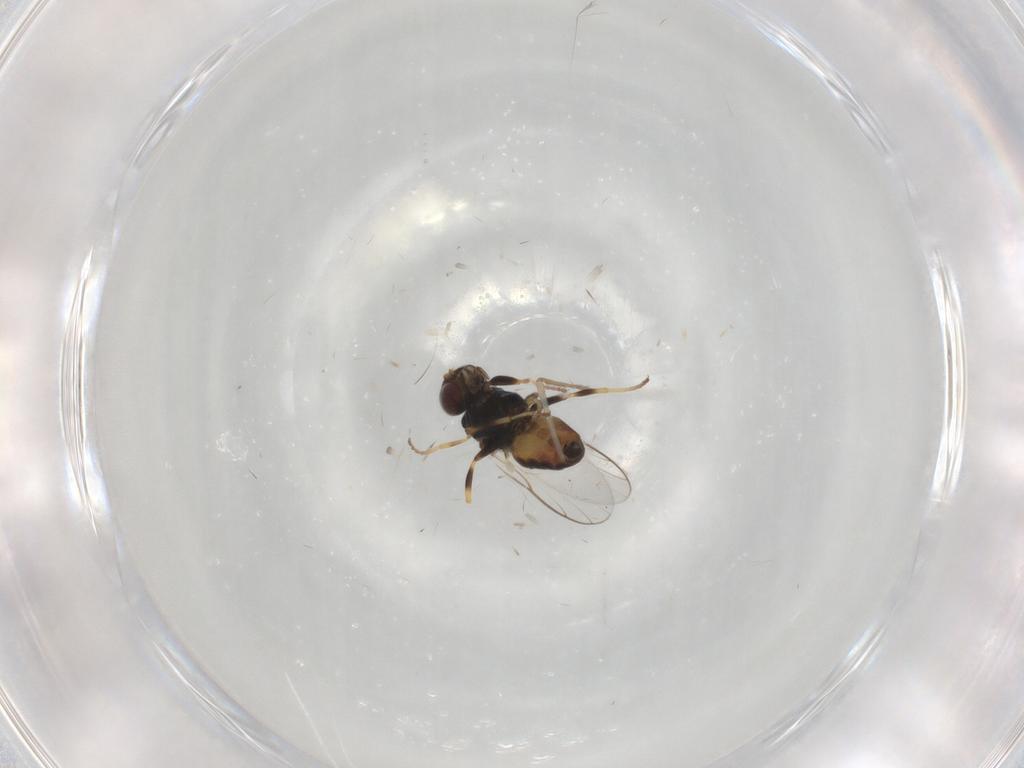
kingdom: Animalia
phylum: Arthropoda
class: Insecta
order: Diptera
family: Chloropidae
